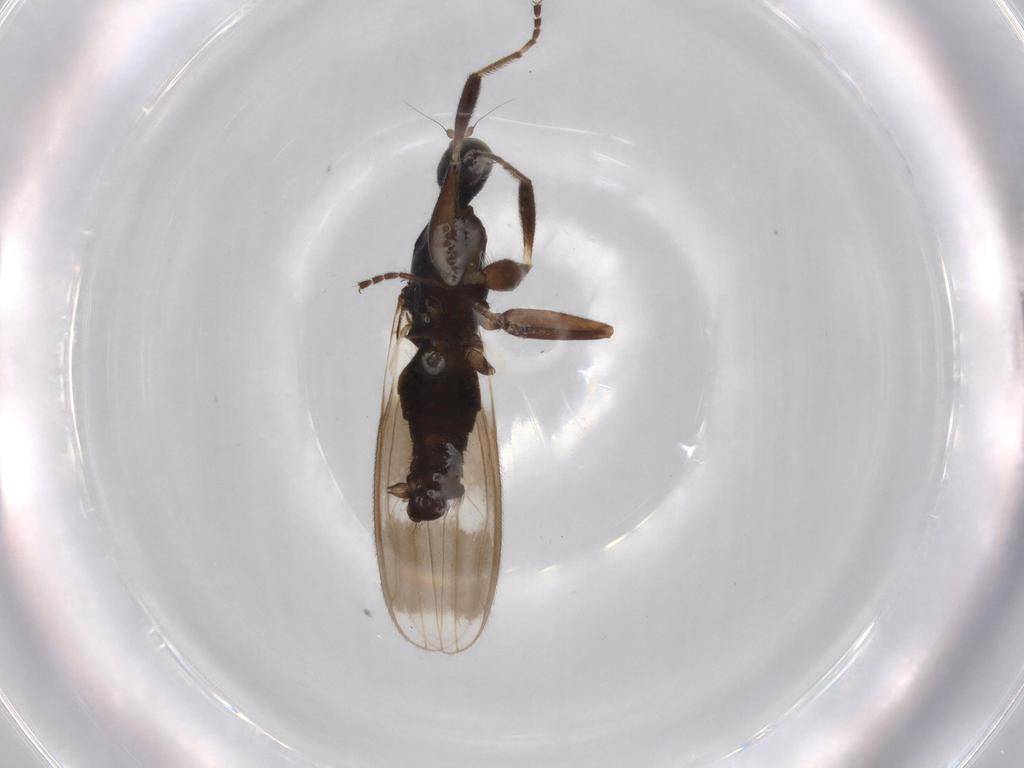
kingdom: Animalia
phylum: Arthropoda
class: Insecta
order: Diptera
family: Hybotidae
